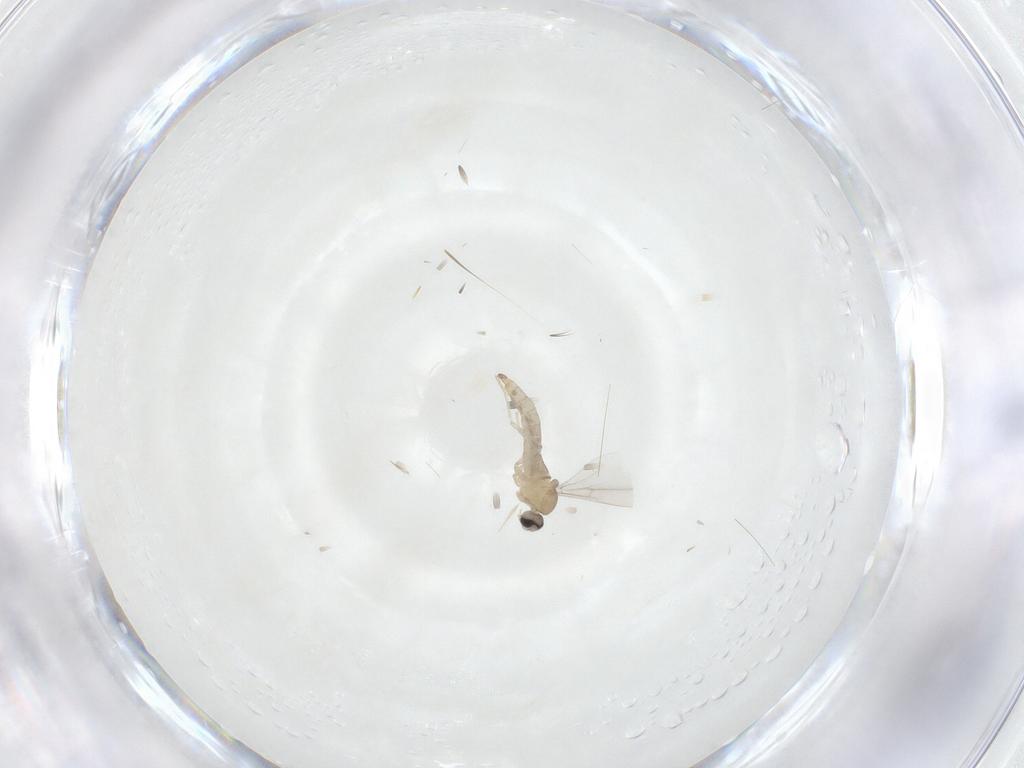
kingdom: Animalia
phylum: Arthropoda
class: Insecta
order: Diptera
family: Cecidomyiidae
